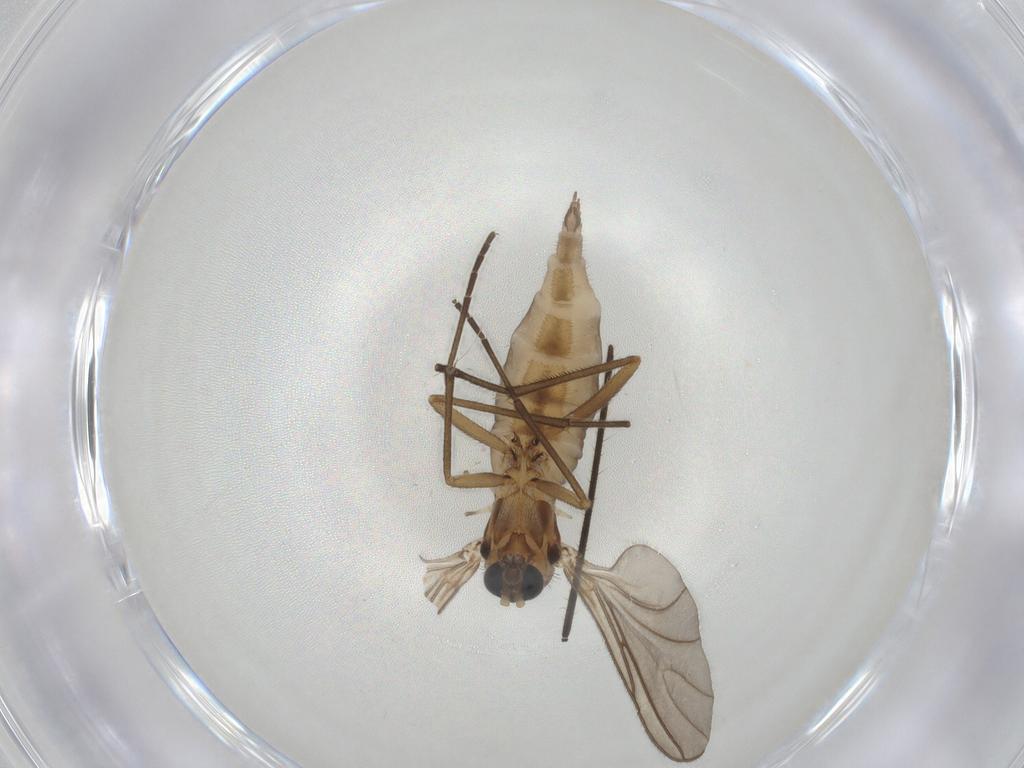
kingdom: Animalia
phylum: Arthropoda
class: Insecta
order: Diptera
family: Sciaridae
